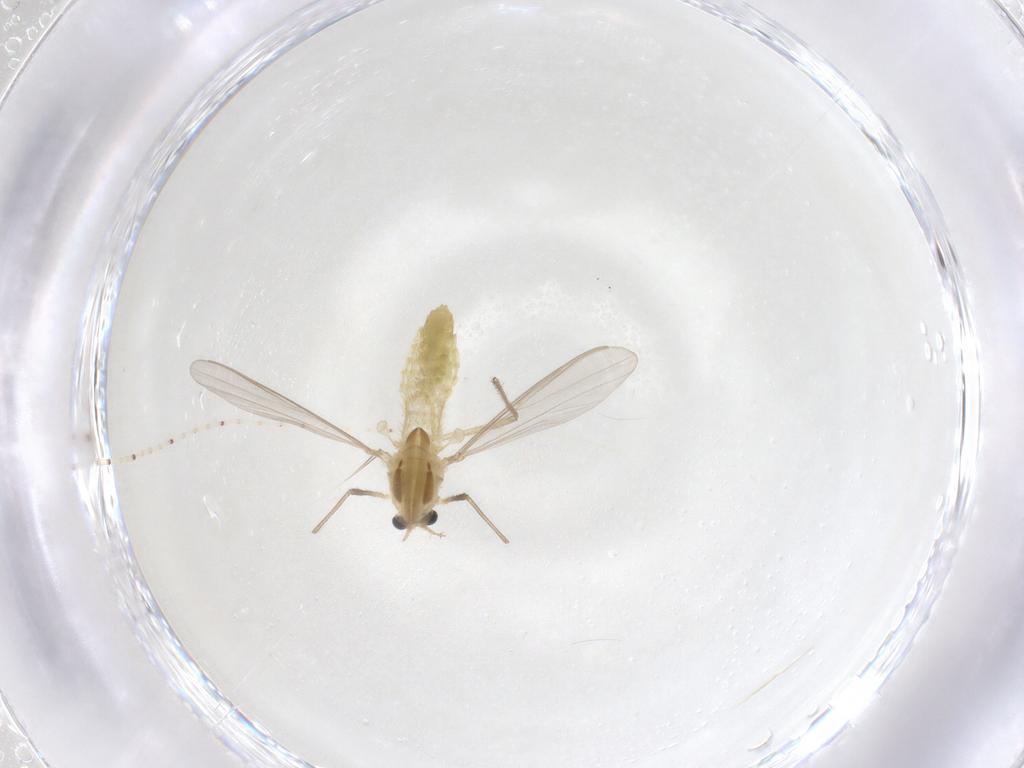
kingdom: Animalia
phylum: Arthropoda
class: Insecta
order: Diptera
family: Chironomidae
